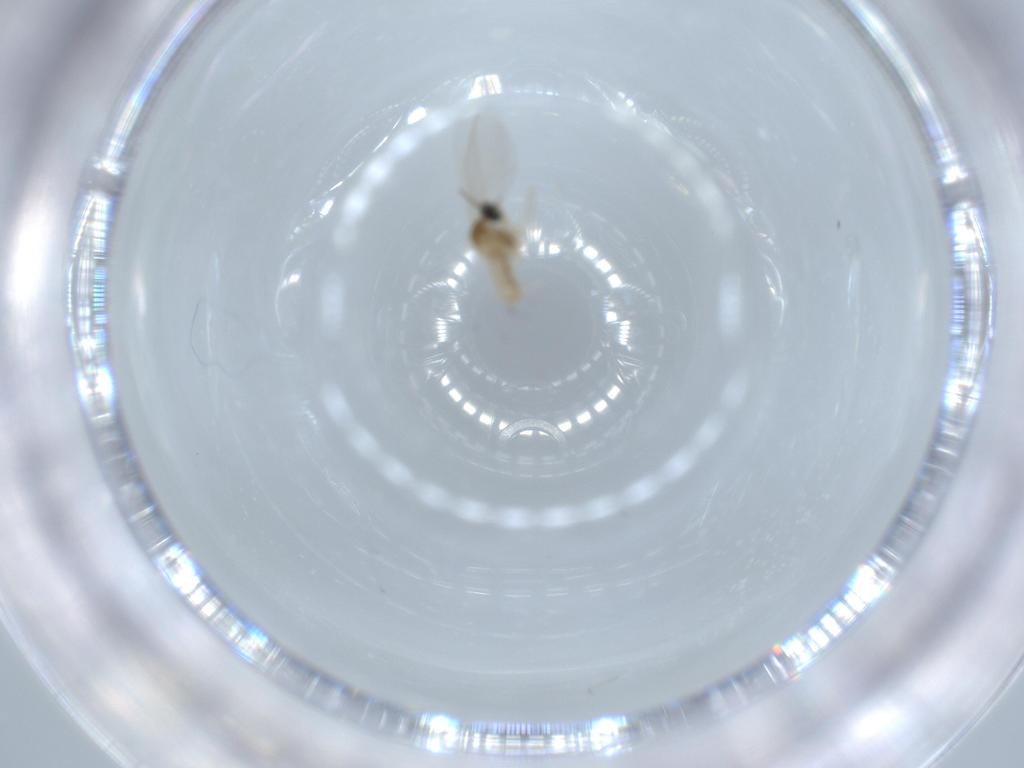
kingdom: Animalia
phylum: Arthropoda
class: Insecta
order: Diptera
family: Cecidomyiidae
